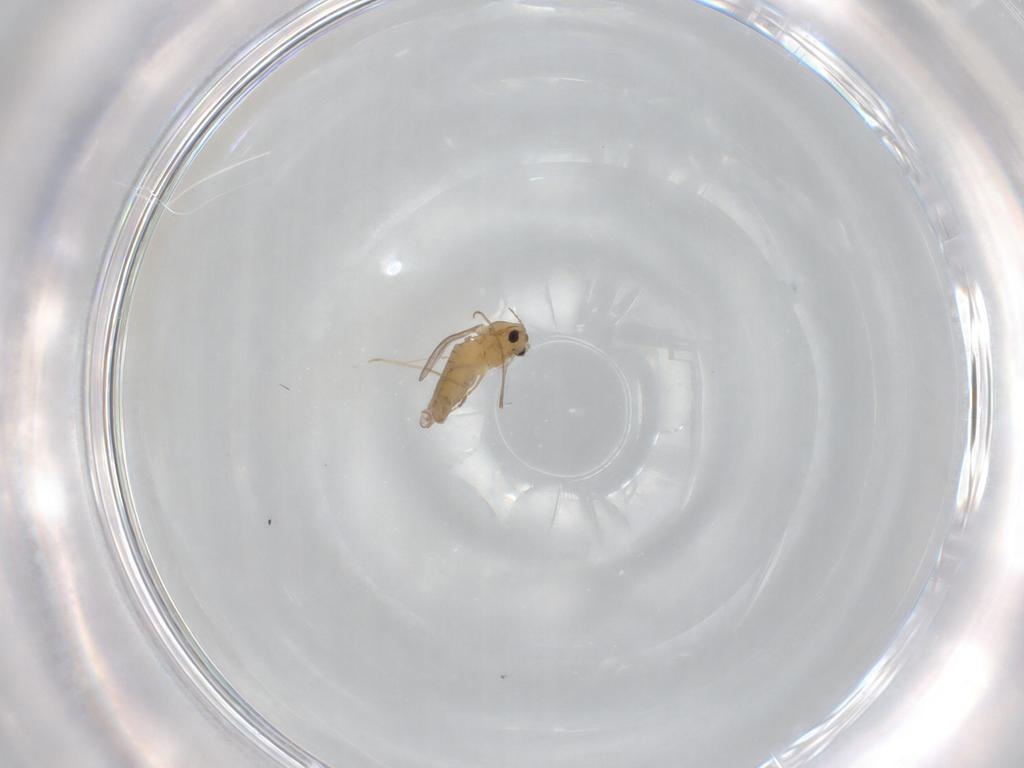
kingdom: Animalia
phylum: Arthropoda
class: Insecta
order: Diptera
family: Chironomidae
